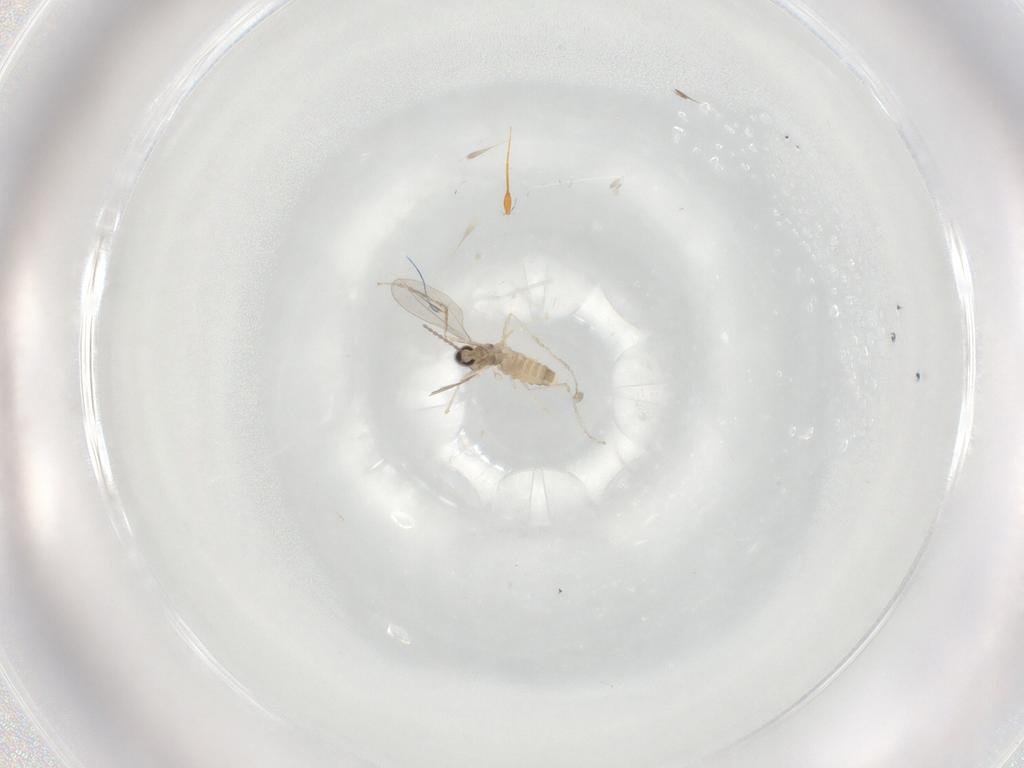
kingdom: Animalia
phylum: Arthropoda
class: Insecta
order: Diptera
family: Cecidomyiidae
